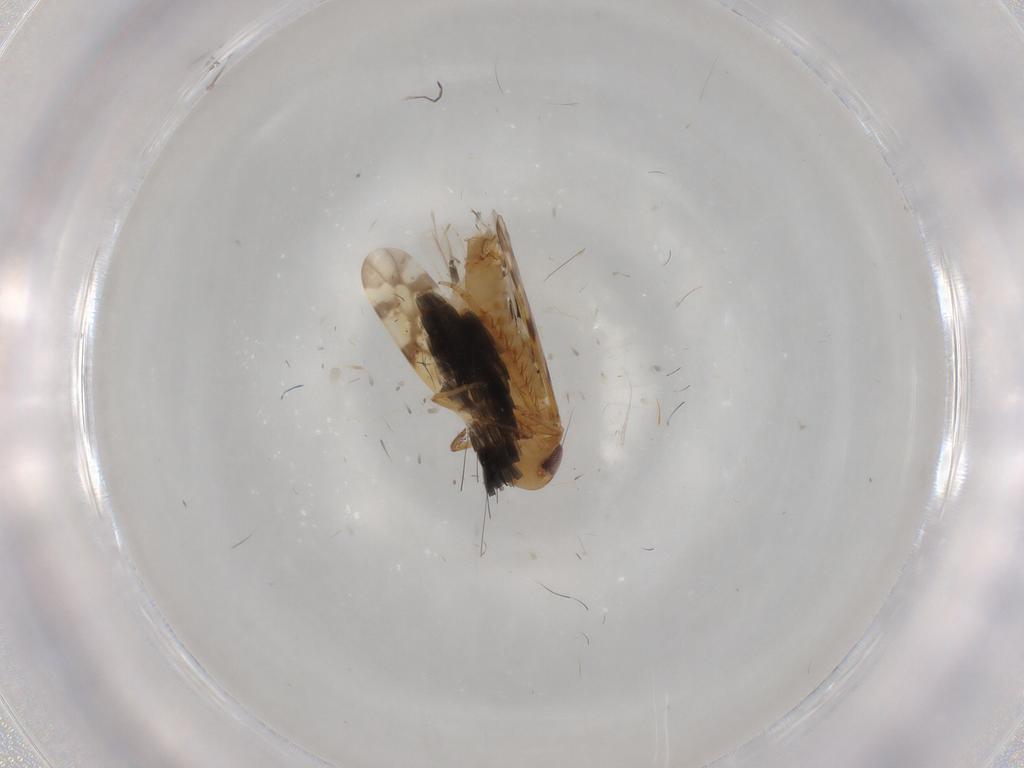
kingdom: Animalia
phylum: Arthropoda
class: Insecta
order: Hemiptera
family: Cicadellidae
